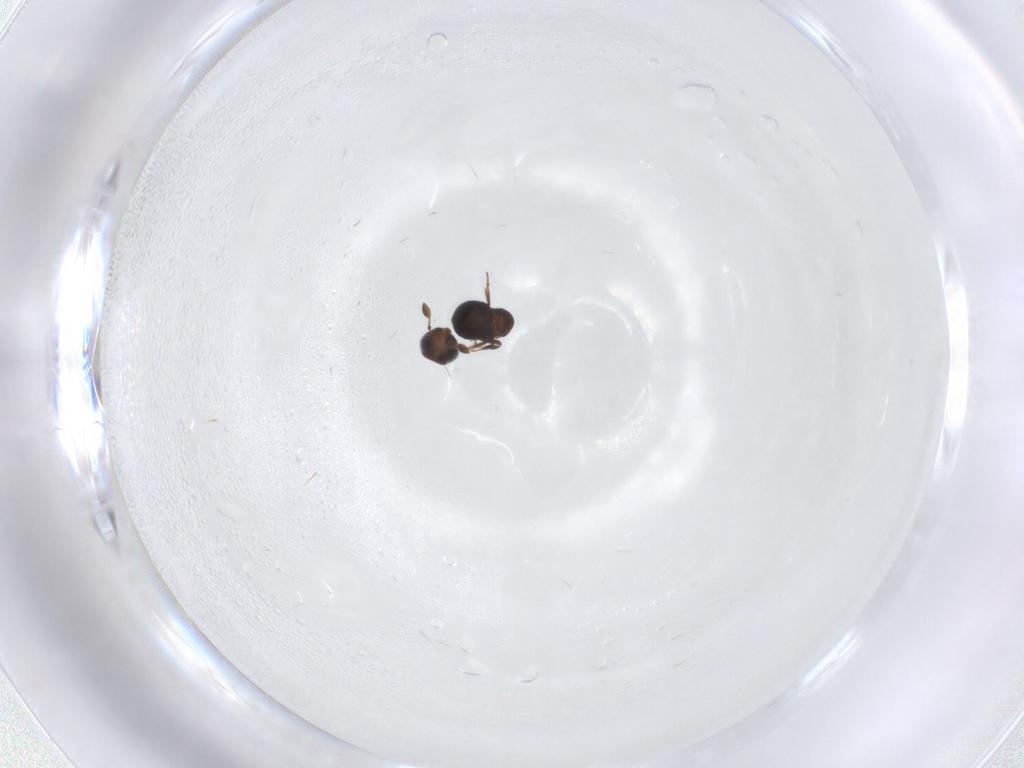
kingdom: Animalia
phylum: Arthropoda
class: Insecta
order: Hymenoptera
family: Scelionidae
